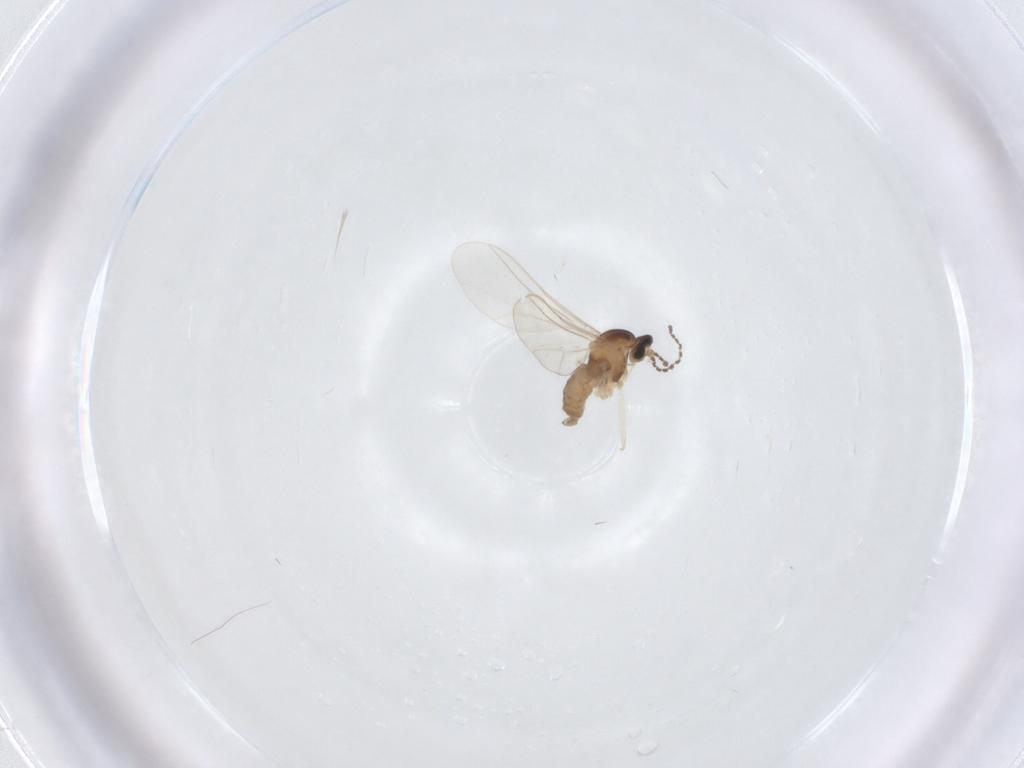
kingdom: Animalia
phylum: Arthropoda
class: Insecta
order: Diptera
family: Cecidomyiidae
